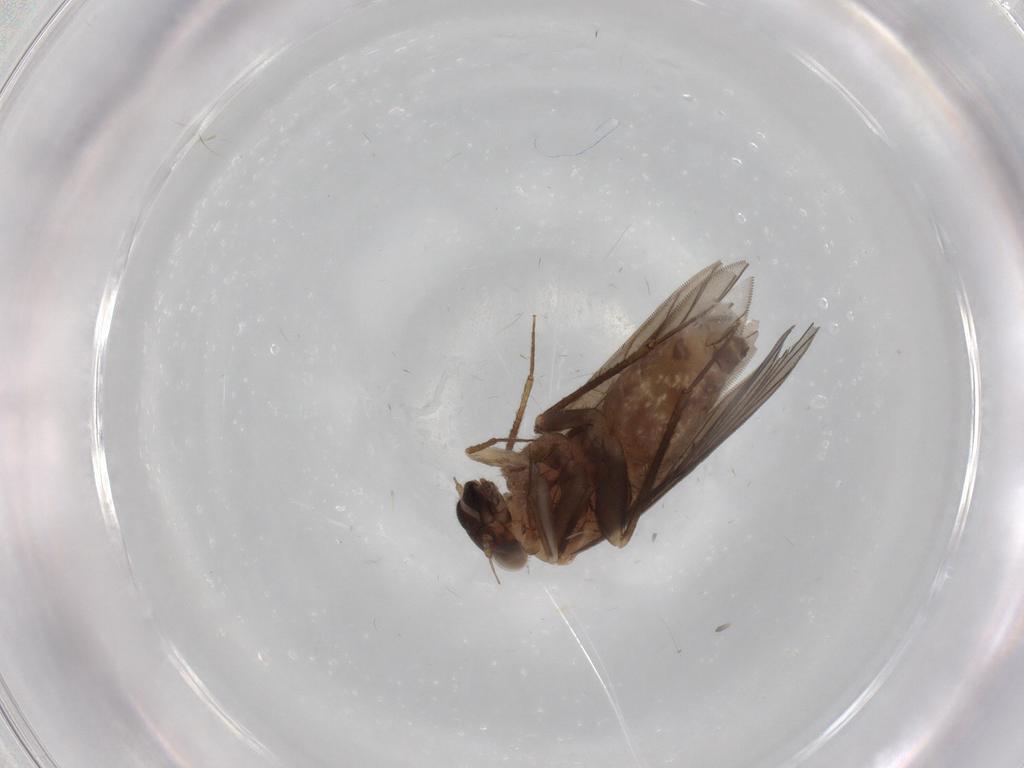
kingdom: Animalia
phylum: Arthropoda
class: Insecta
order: Psocodea
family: Lepidopsocidae
